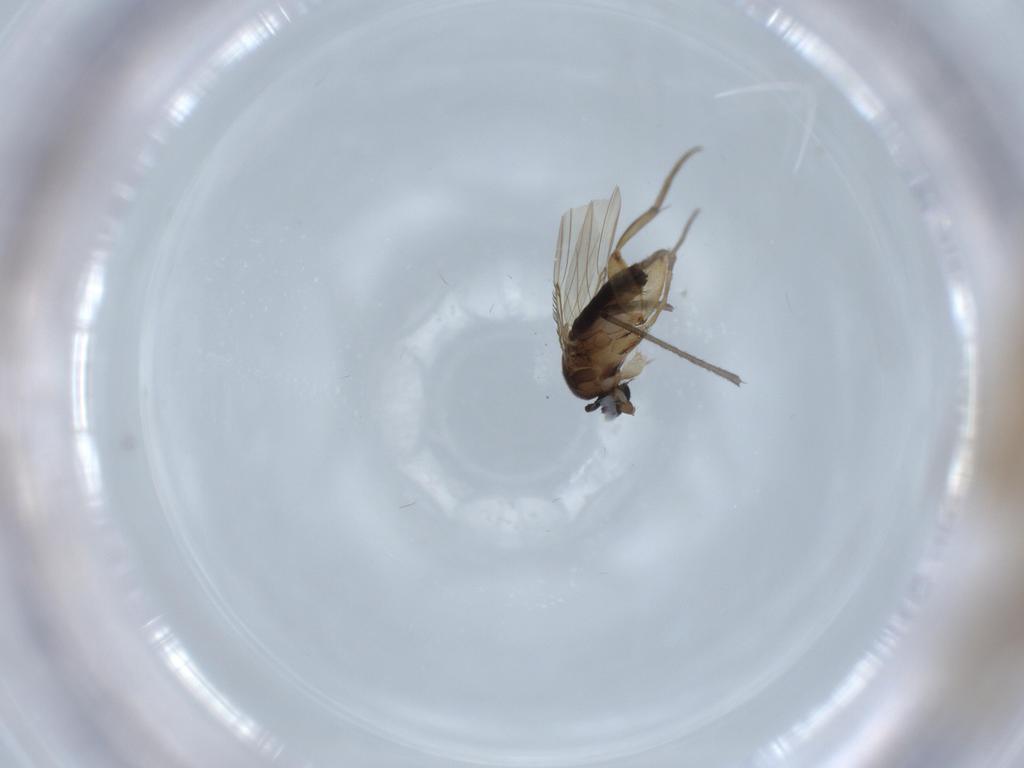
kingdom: Animalia
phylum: Arthropoda
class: Insecta
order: Diptera
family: Phoridae
